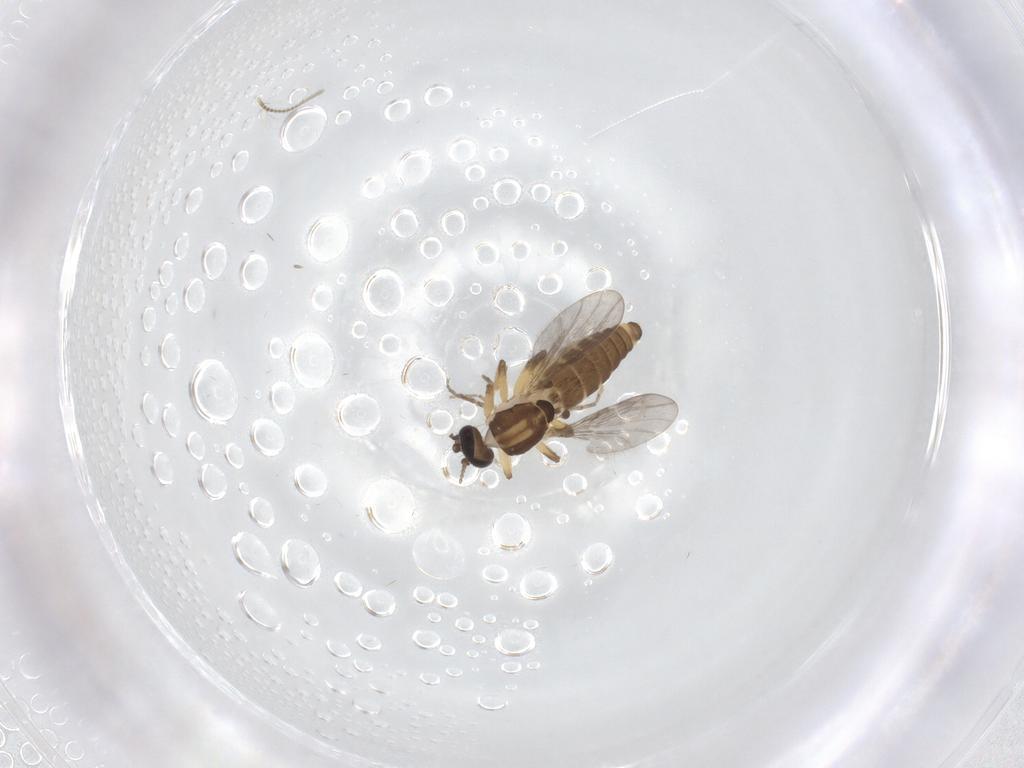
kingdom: Animalia
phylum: Arthropoda
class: Insecta
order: Diptera
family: Ceratopogonidae
